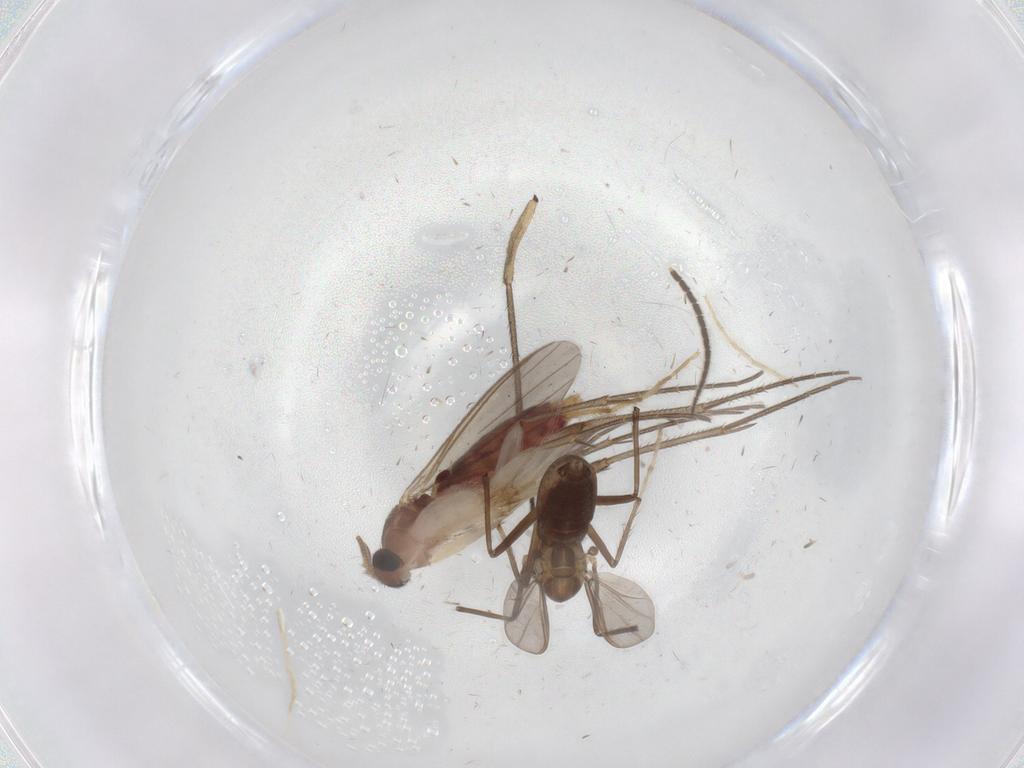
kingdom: Animalia
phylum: Arthropoda
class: Insecta
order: Diptera
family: Mycetophilidae
